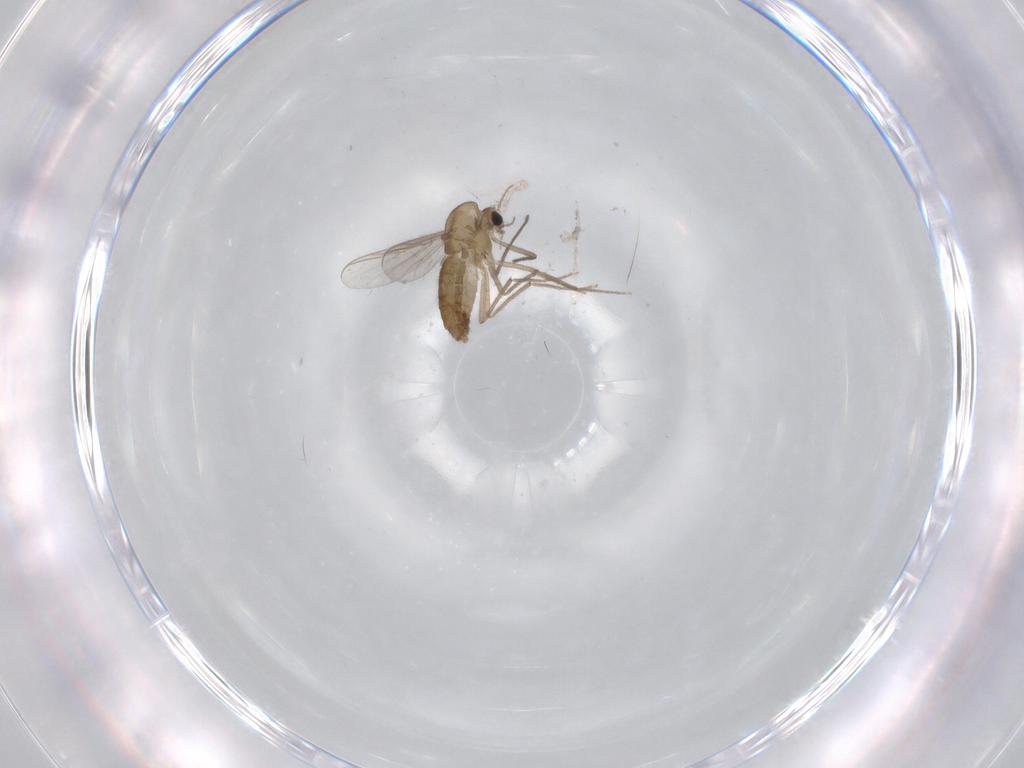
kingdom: Animalia
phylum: Arthropoda
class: Insecta
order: Diptera
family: Chironomidae
